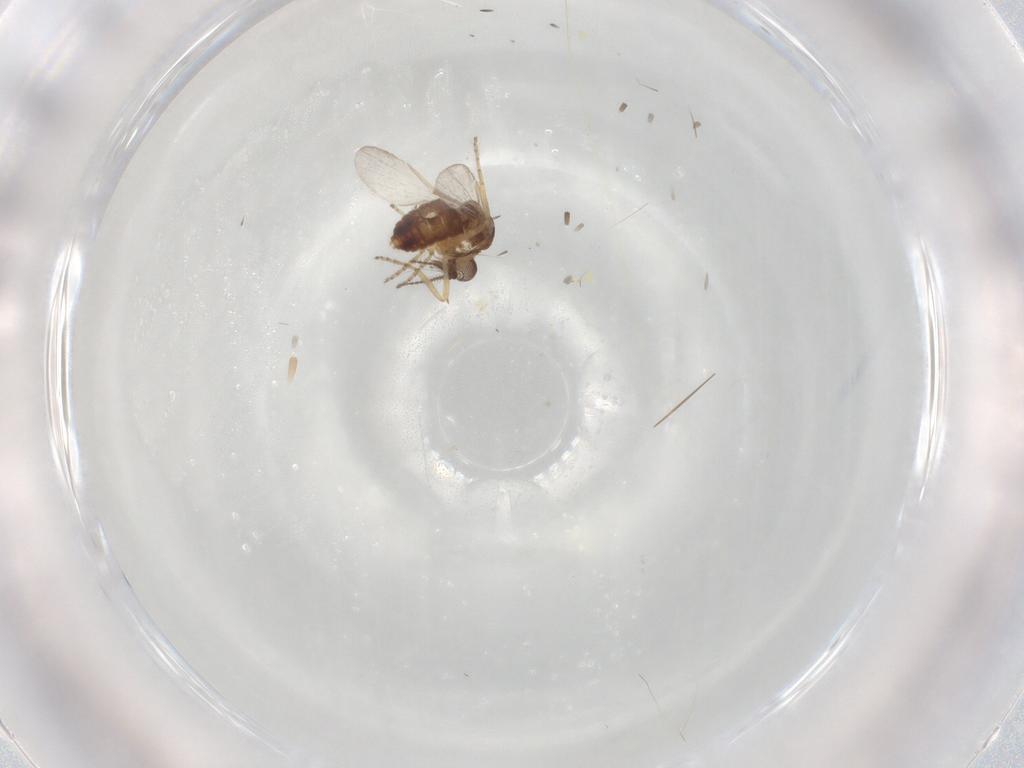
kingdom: Animalia
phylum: Arthropoda
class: Insecta
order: Diptera
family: Ceratopogonidae
